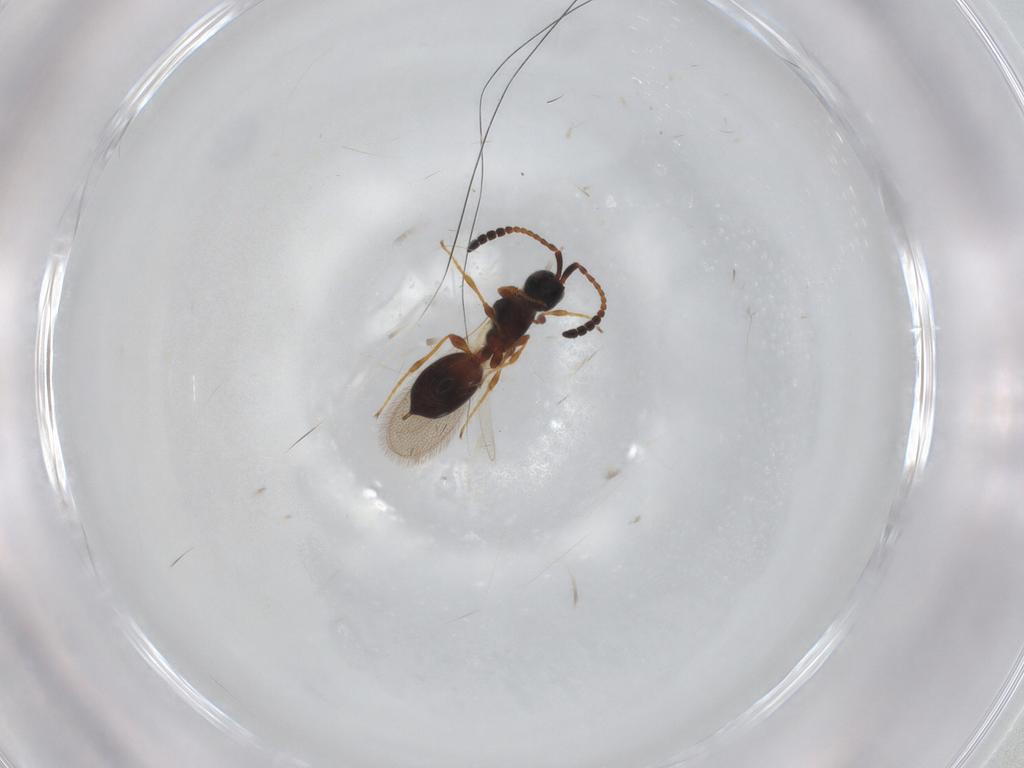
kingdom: Animalia
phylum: Arthropoda
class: Insecta
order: Hymenoptera
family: Diapriidae
